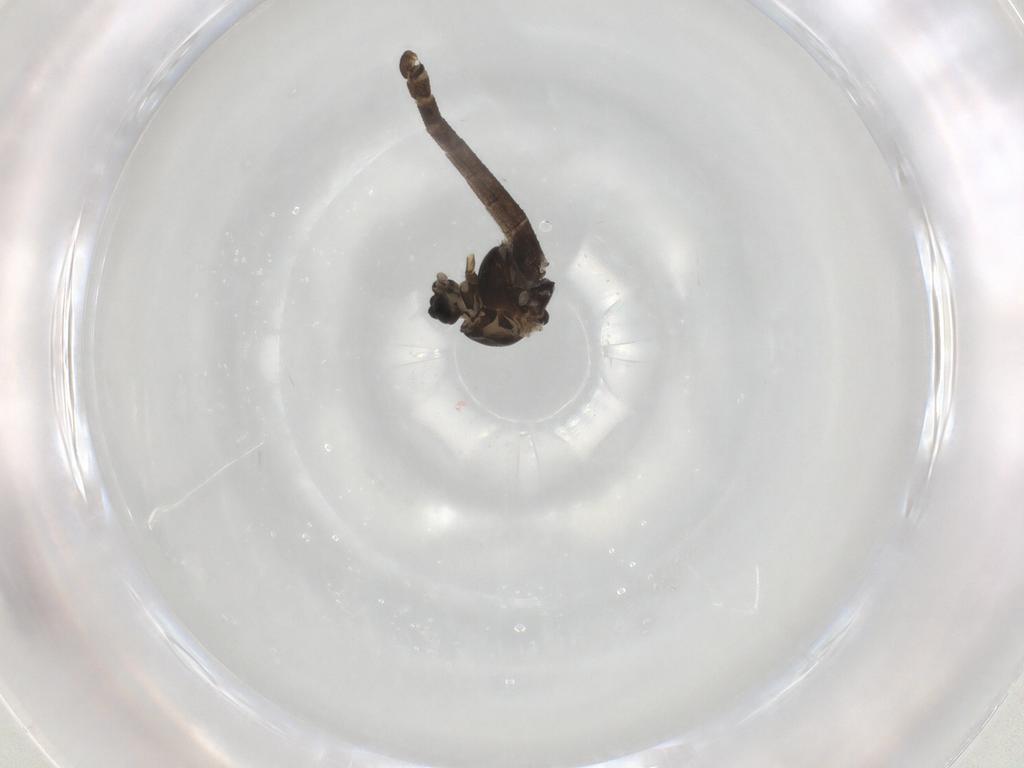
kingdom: Animalia
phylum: Arthropoda
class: Insecta
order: Diptera
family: Chironomidae
